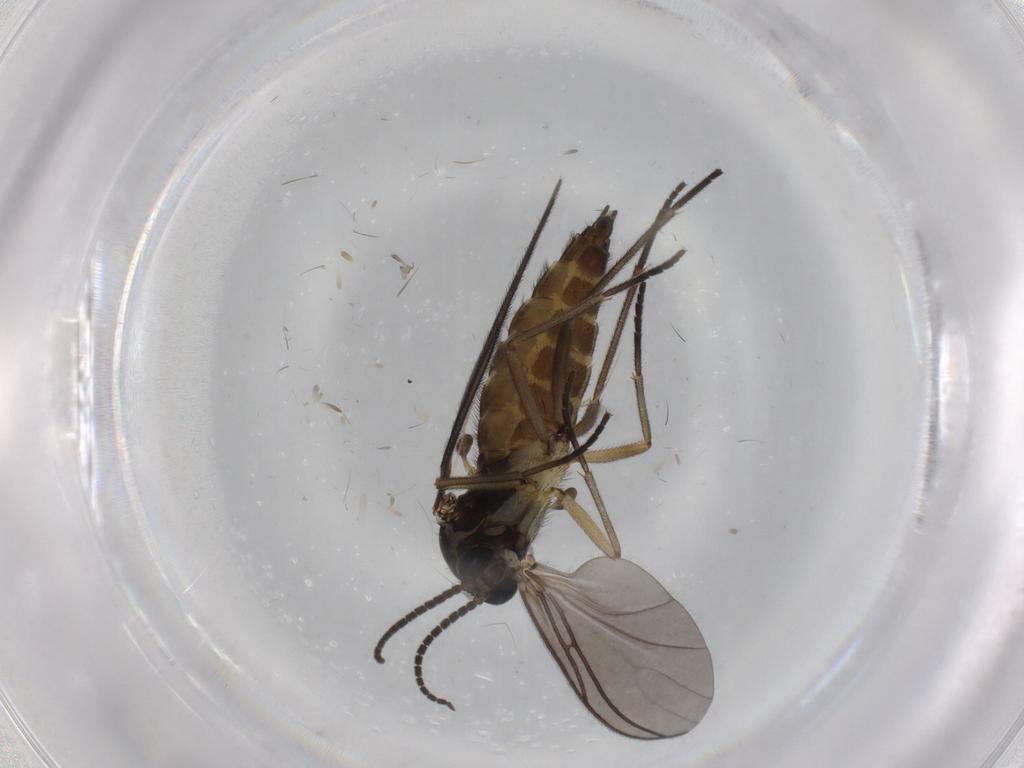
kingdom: Animalia
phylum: Arthropoda
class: Insecta
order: Diptera
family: Sciaridae
